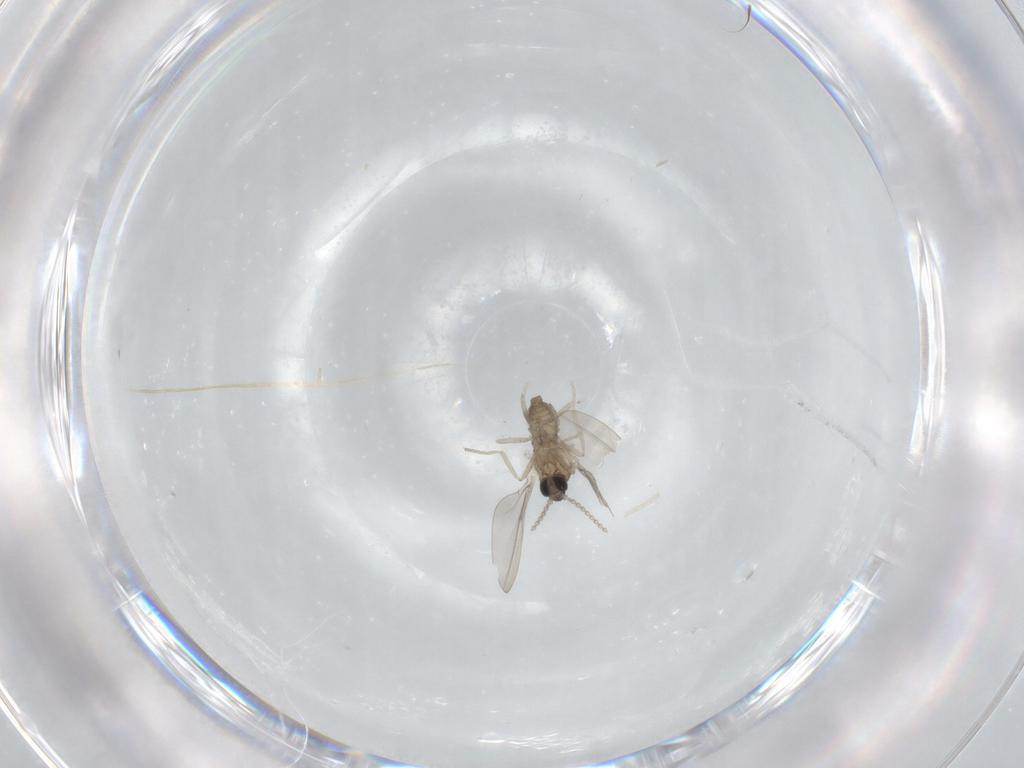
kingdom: Animalia
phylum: Arthropoda
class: Insecta
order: Diptera
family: Cecidomyiidae
